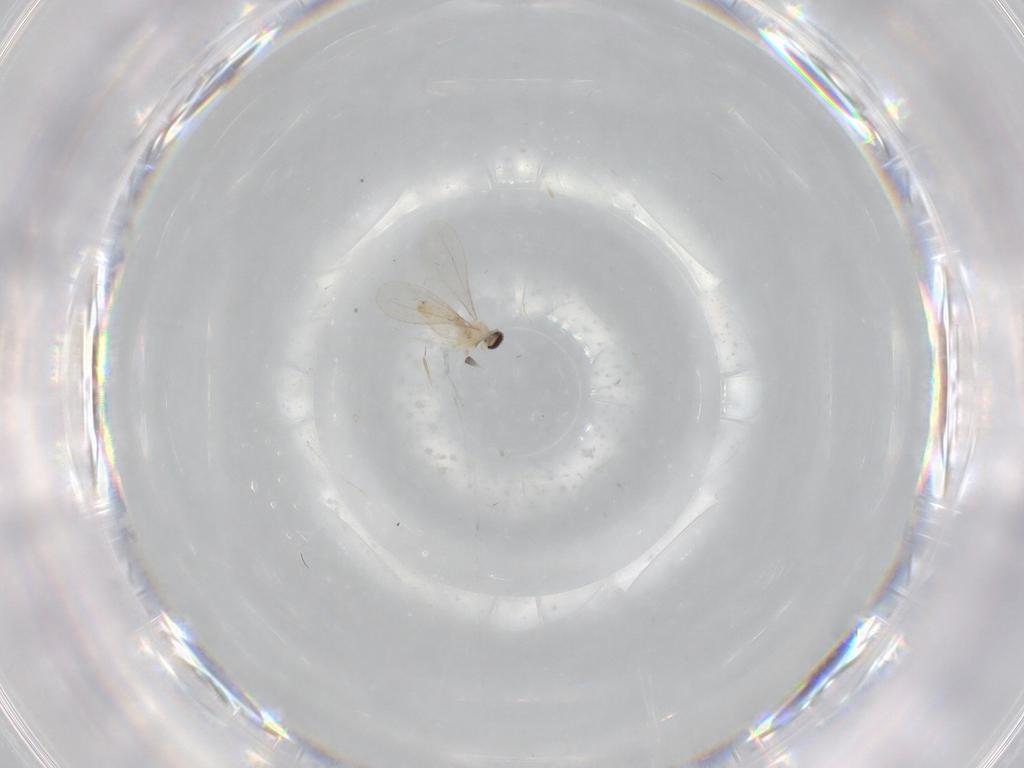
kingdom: Animalia
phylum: Arthropoda
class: Insecta
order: Diptera
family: Cecidomyiidae
